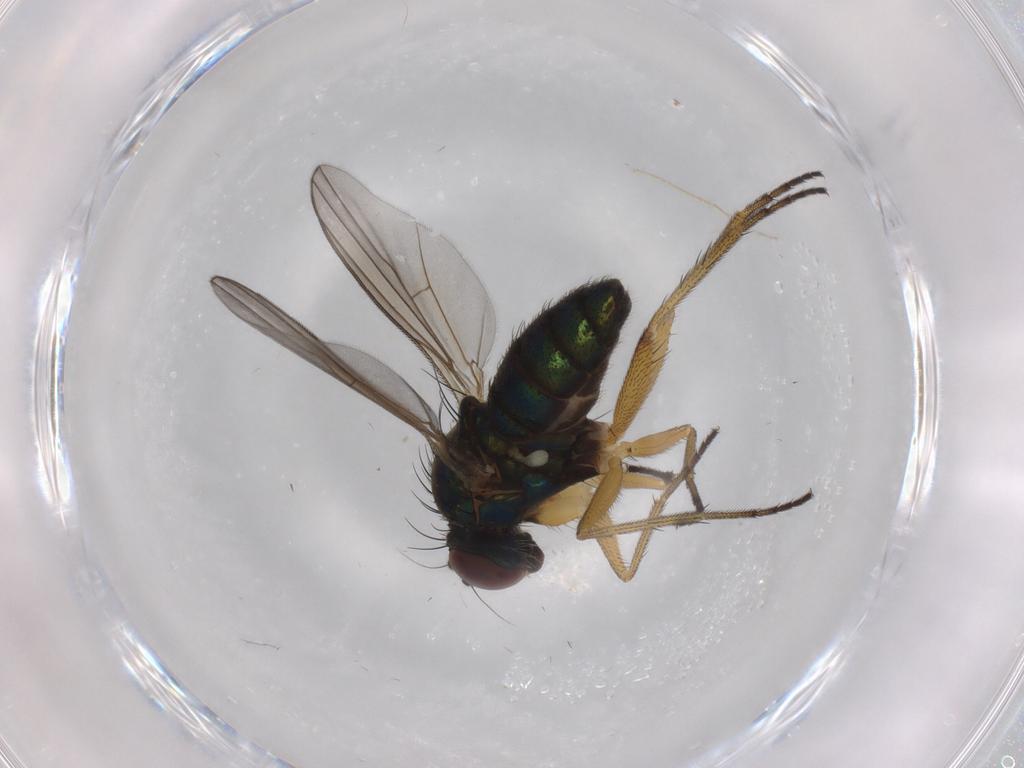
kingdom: Animalia
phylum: Arthropoda
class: Insecta
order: Diptera
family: Dolichopodidae
